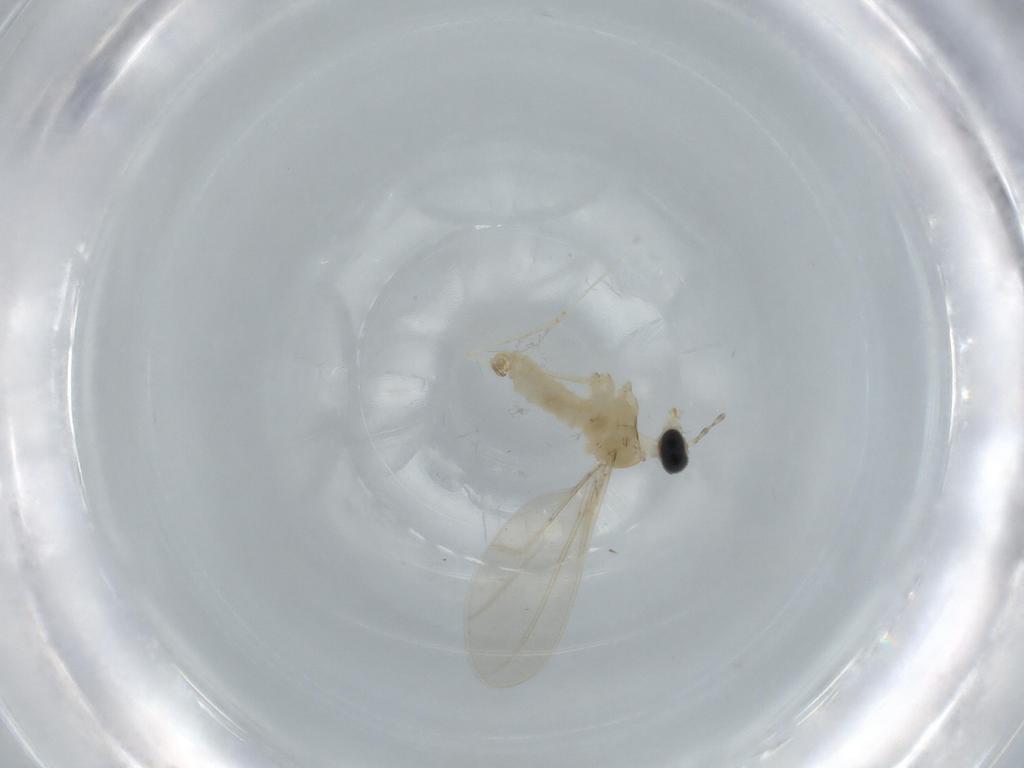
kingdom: Animalia
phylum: Arthropoda
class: Insecta
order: Diptera
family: Cecidomyiidae
